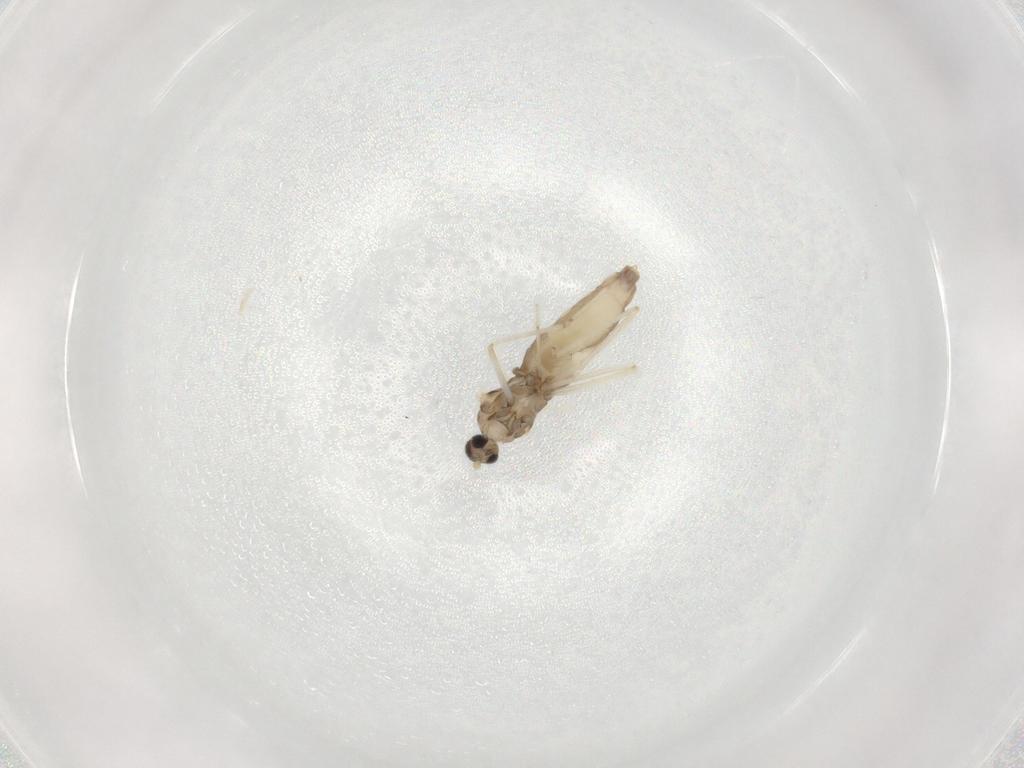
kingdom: Animalia
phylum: Arthropoda
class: Insecta
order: Diptera
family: Cecidomyiidae
